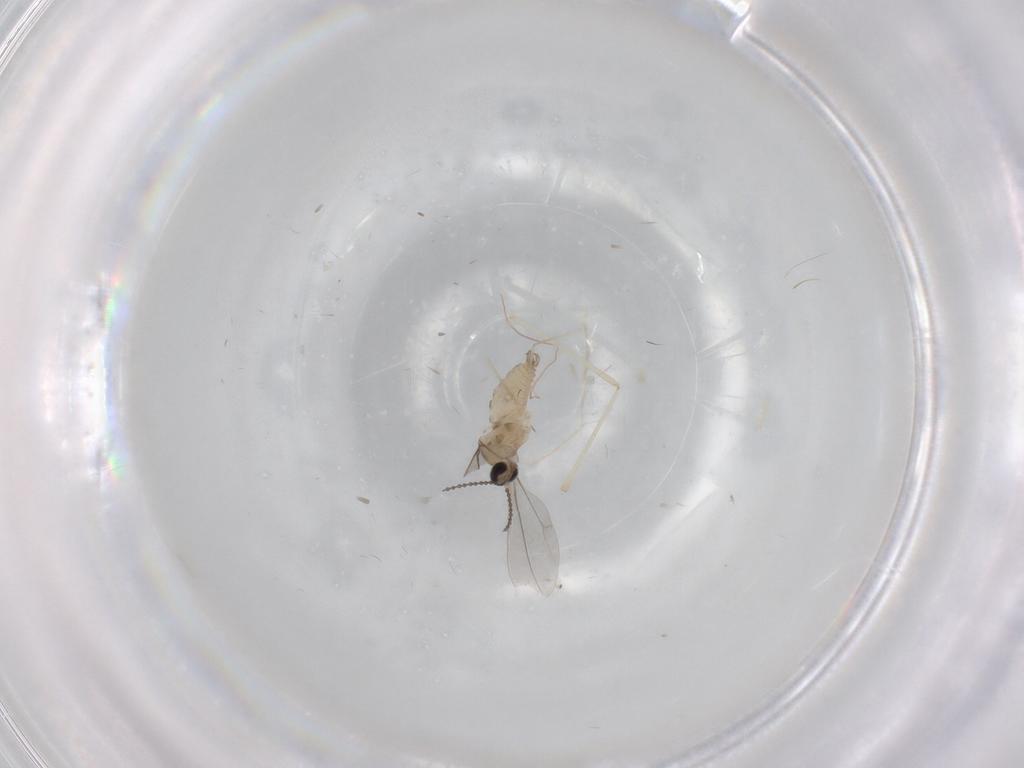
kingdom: Animalia
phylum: Arthropoda
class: Insecta
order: Diptera
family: Cecidomyiidae
